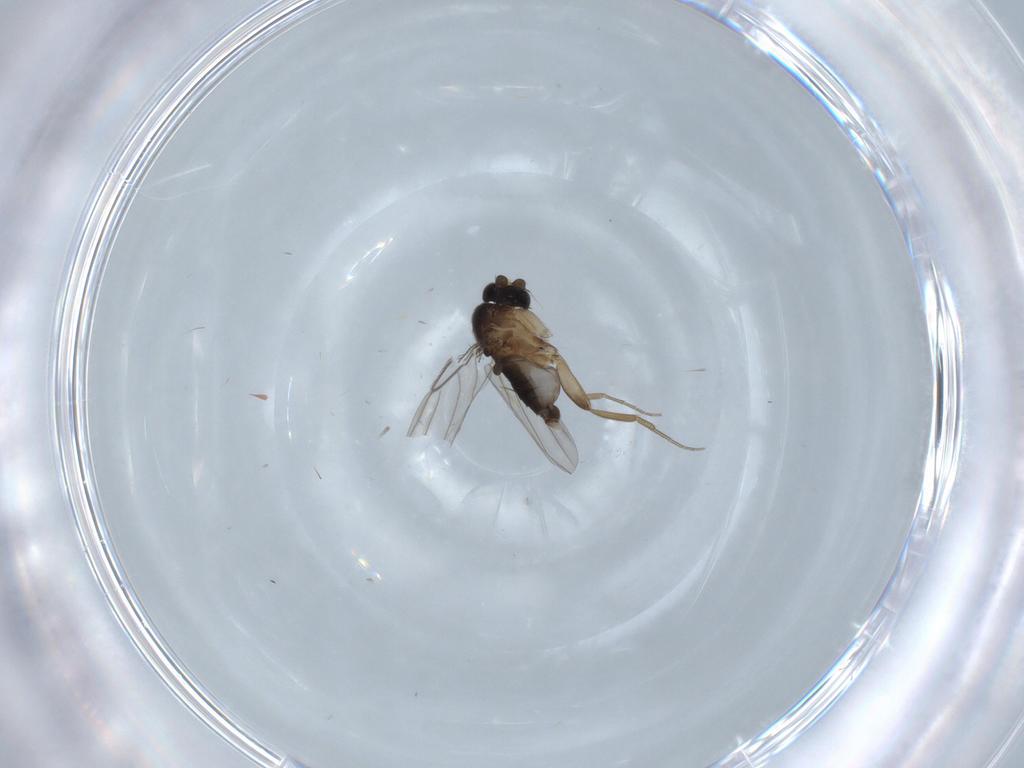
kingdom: Animalia
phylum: Arthropoda
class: Insecta
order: Diptera
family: Phoridae
